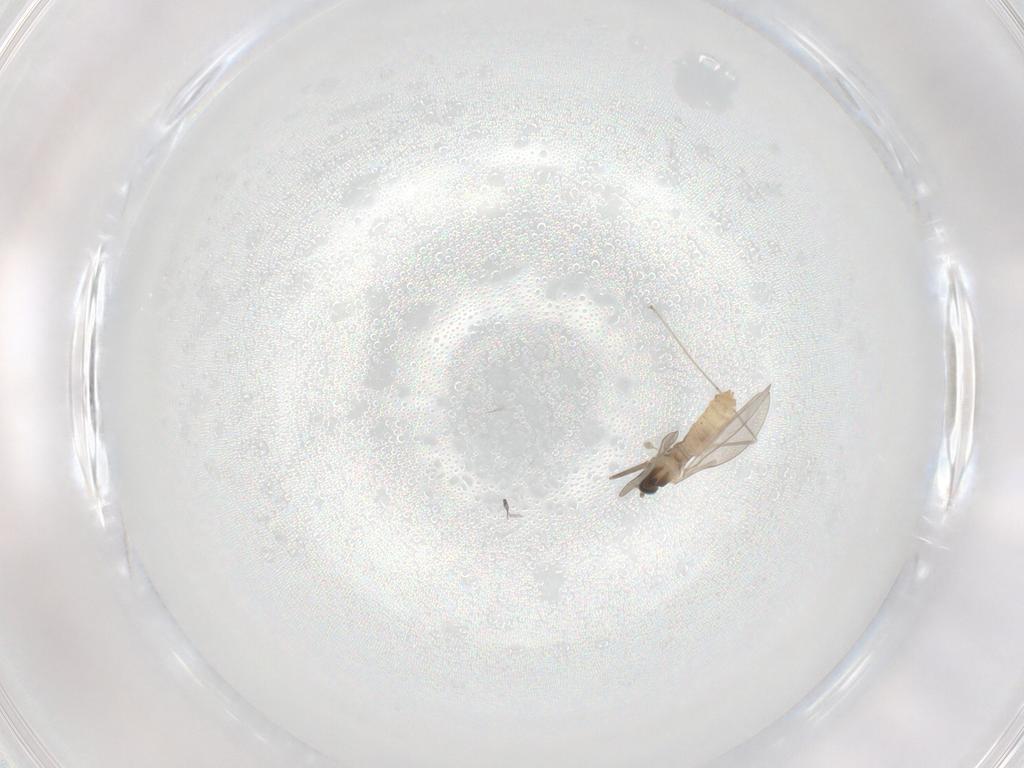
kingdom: Animalia
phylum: Arthropoda
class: Insecta
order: Diptera
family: Cecidomyiidae
